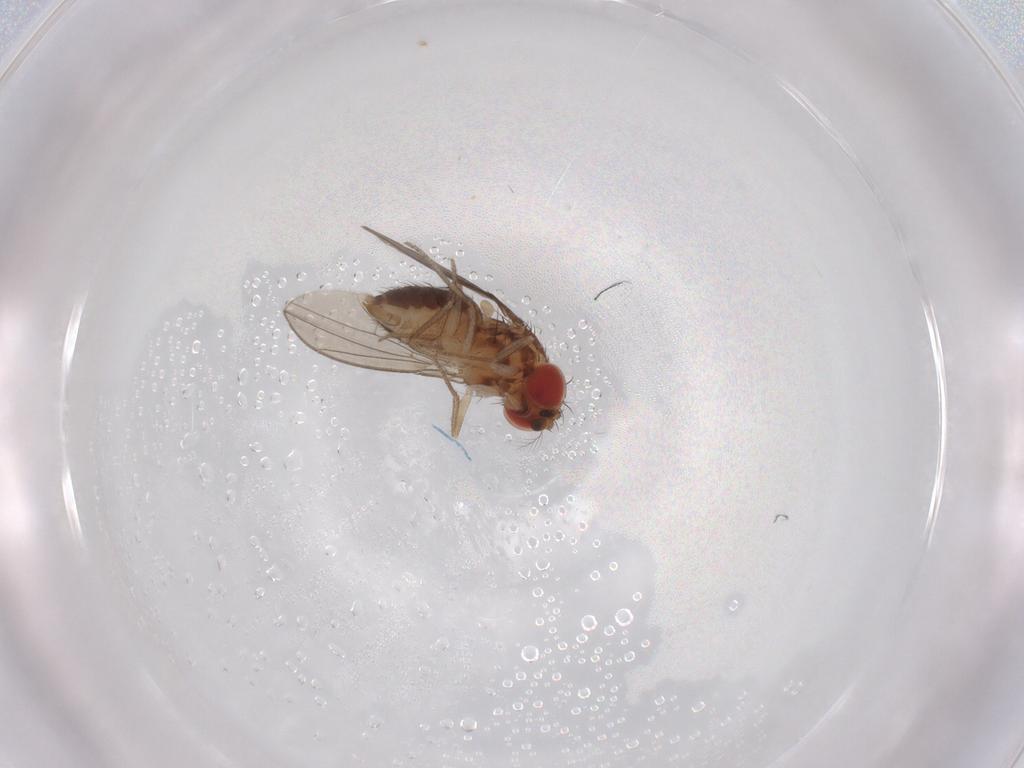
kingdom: Animalia
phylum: Arthropoda
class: Insecta
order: Diptera
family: Drosophilidae
